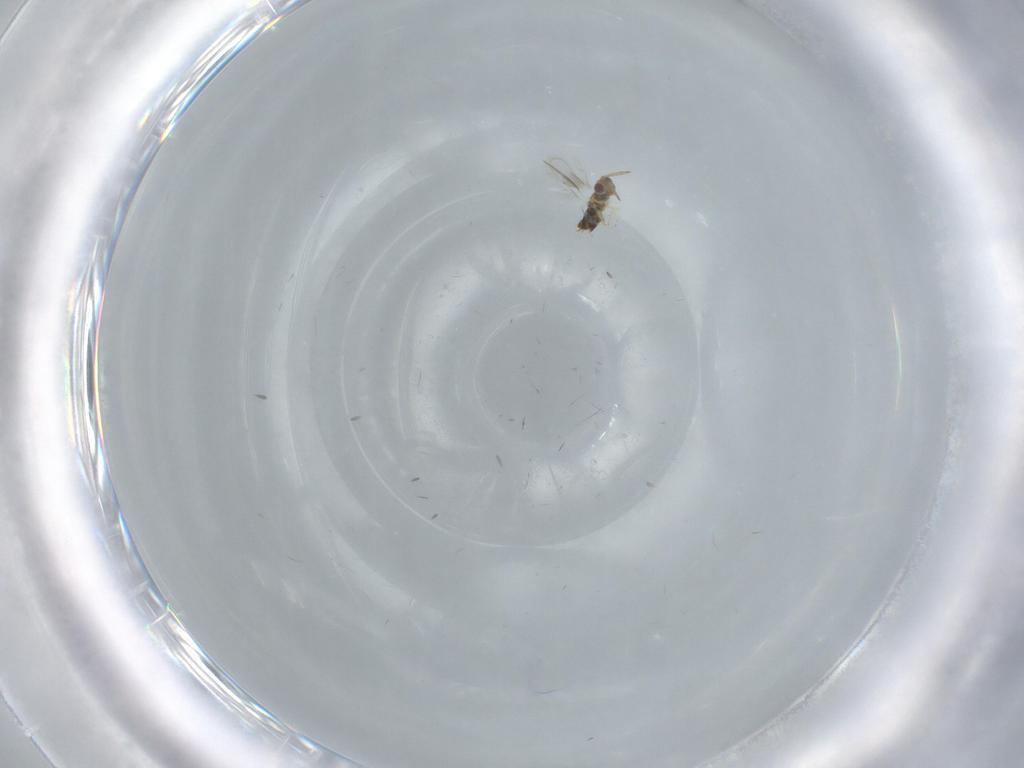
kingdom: Animalia
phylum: Arthropoda
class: Insecta
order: Hymenoptera
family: Aphelinidae
